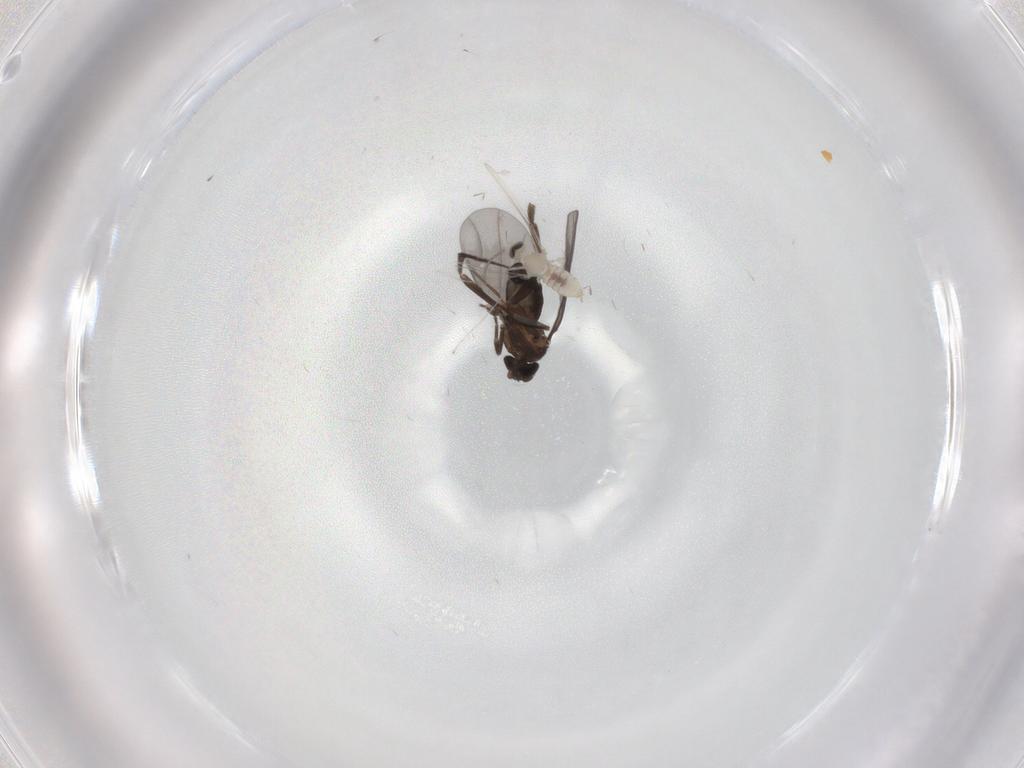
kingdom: Animalia
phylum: Arthropoda
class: Insecta
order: Diptera
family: Phoridae
